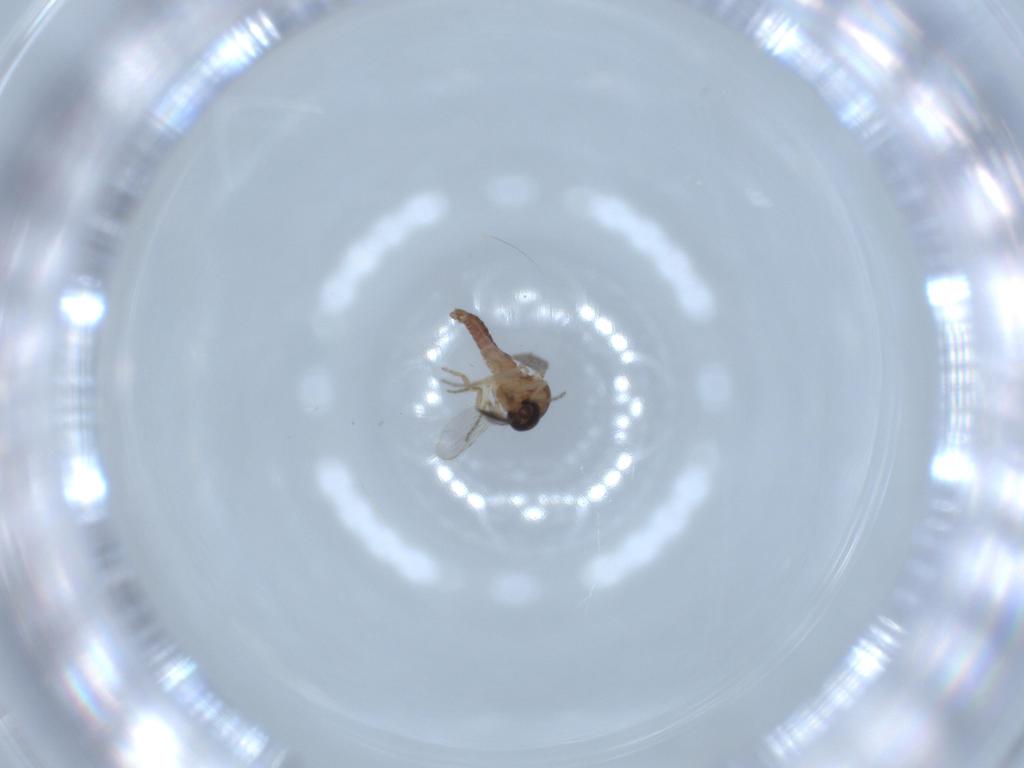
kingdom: Animalia
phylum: Arthropoda
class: Insecta
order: Diptera
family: Ceratopogonidae
